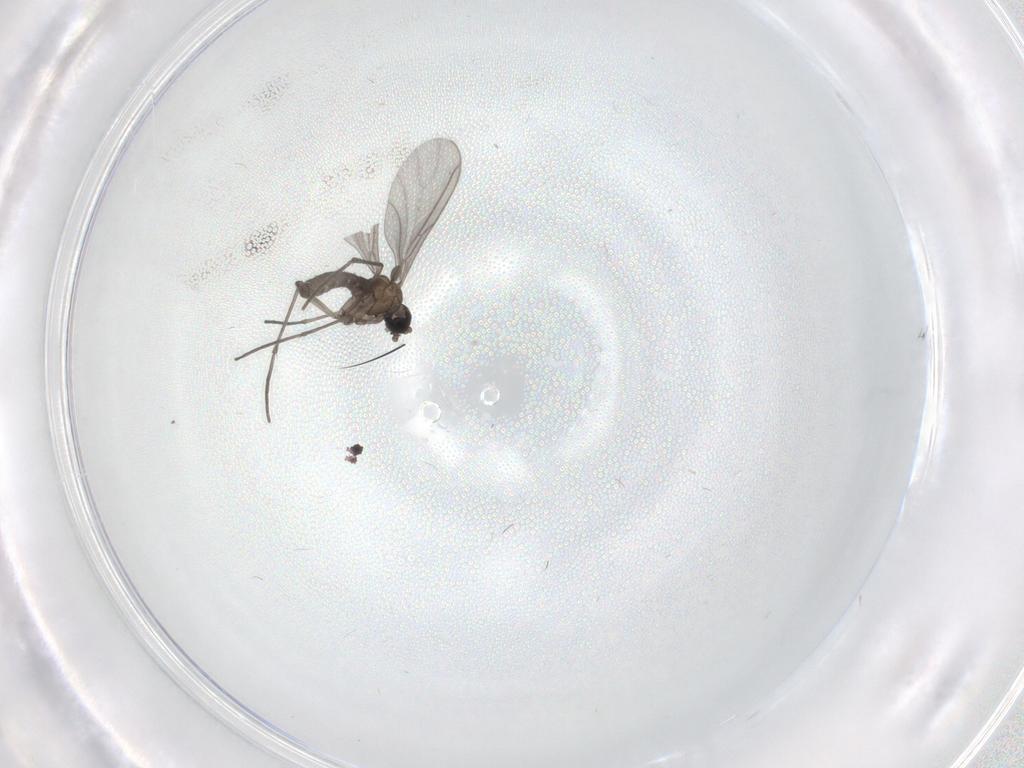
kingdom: Animalia
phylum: Arthropoda
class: Insecta
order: Diptera
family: Sciaridae
